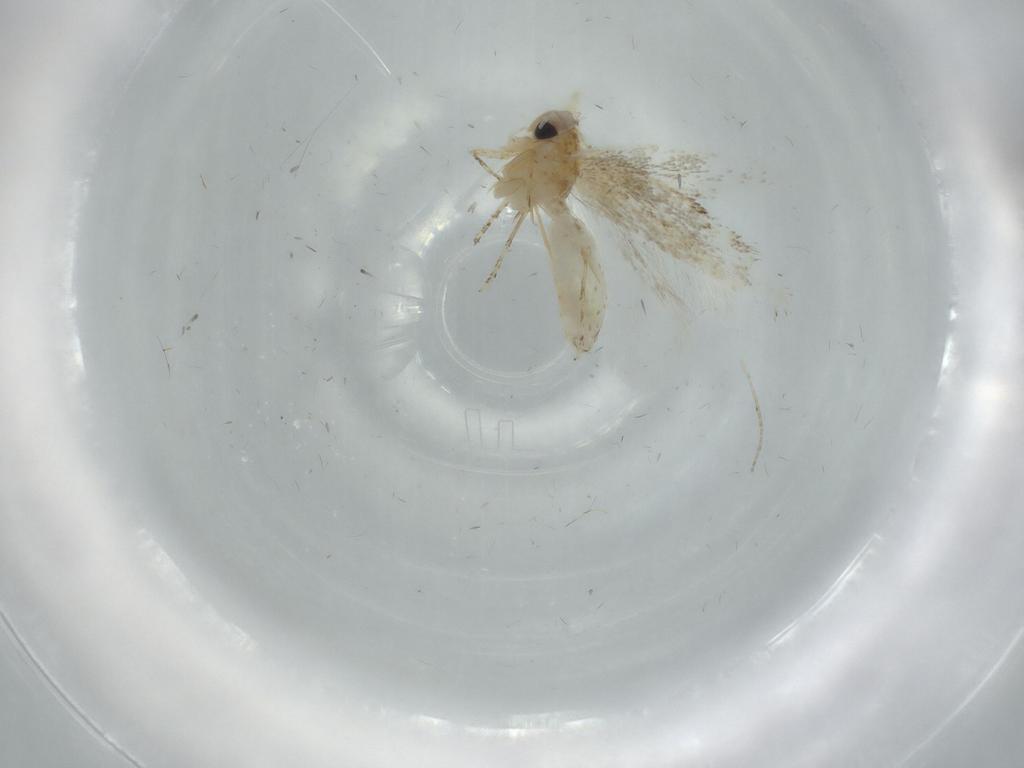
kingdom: Animalia
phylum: Arthropoda
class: Insecta
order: Lepidoptera
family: Bucculatricidae
